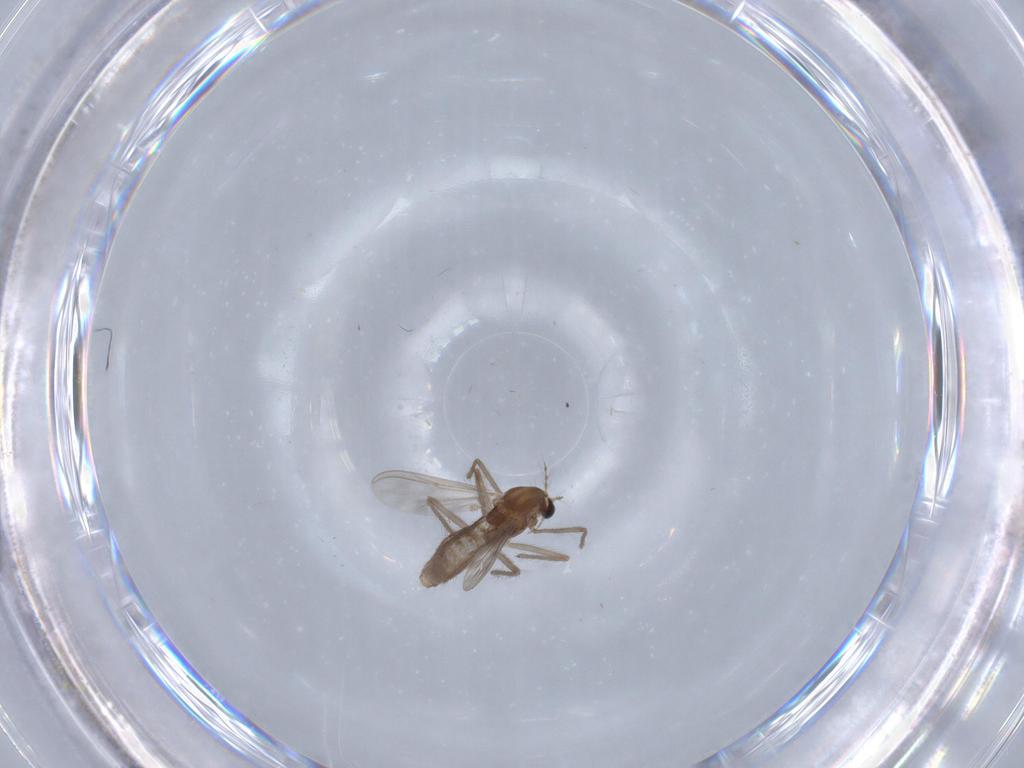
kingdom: Animalia
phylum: Arthropoda
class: Insecta
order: Diptera
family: Chironomidae
